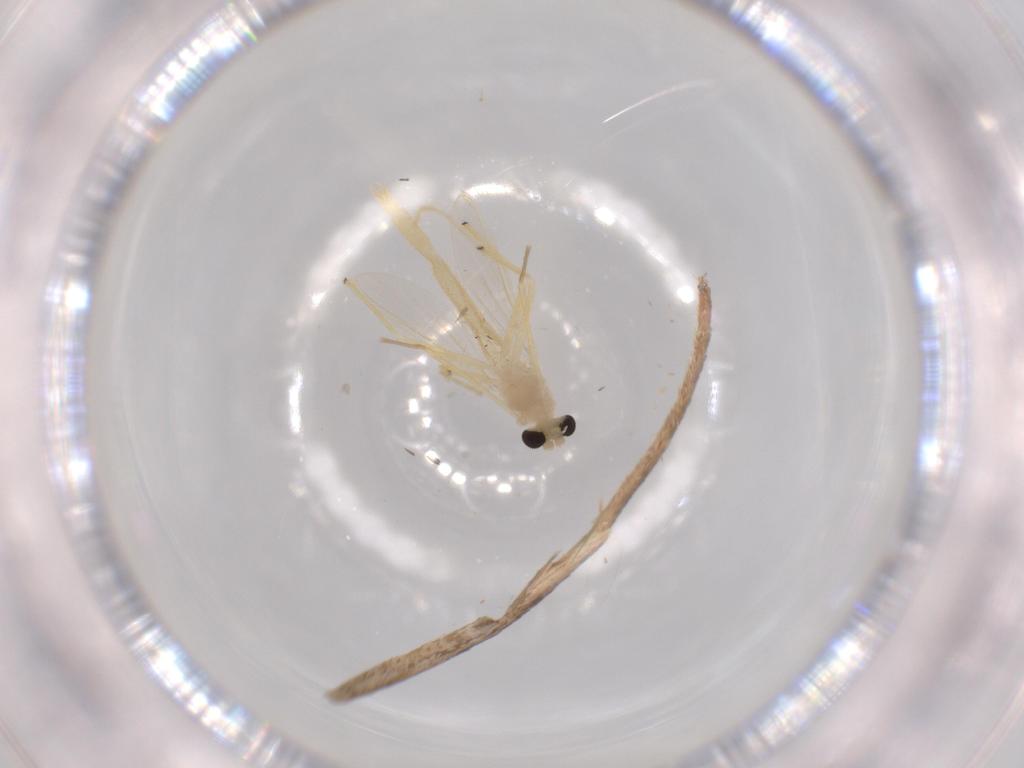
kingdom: Animalia
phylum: Arthropoda
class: Insecta
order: Diptera
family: Chironomidae
